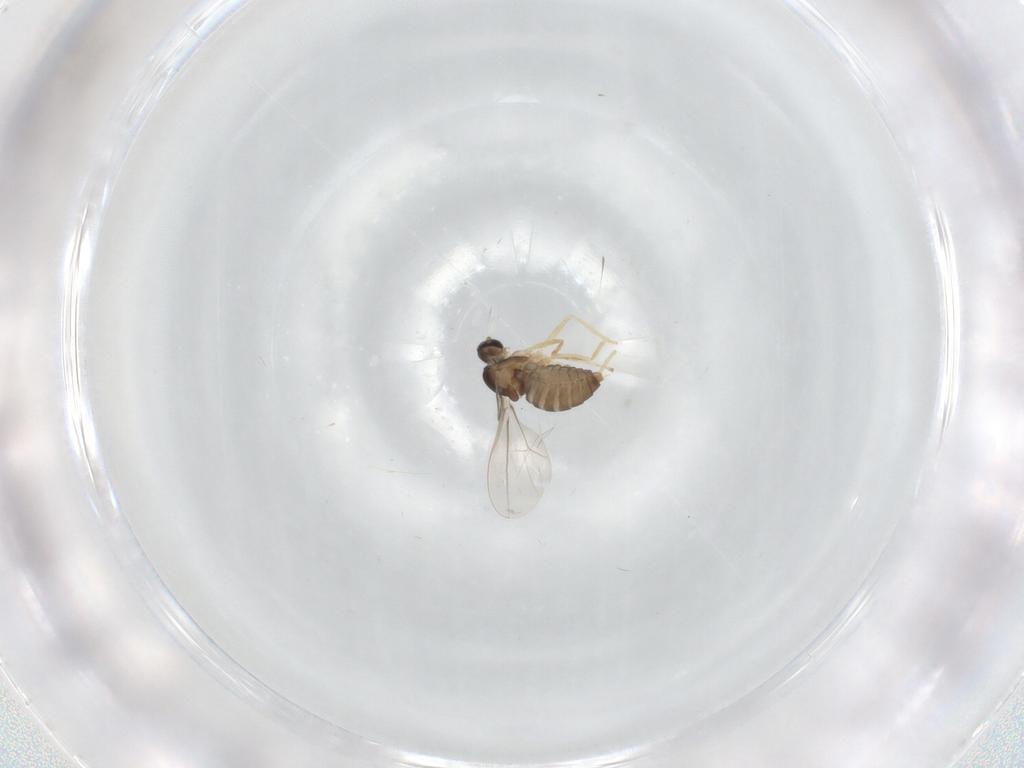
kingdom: Animalia
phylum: Arthropoda
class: Insecta
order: Diptera
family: Cecidomyiidae
